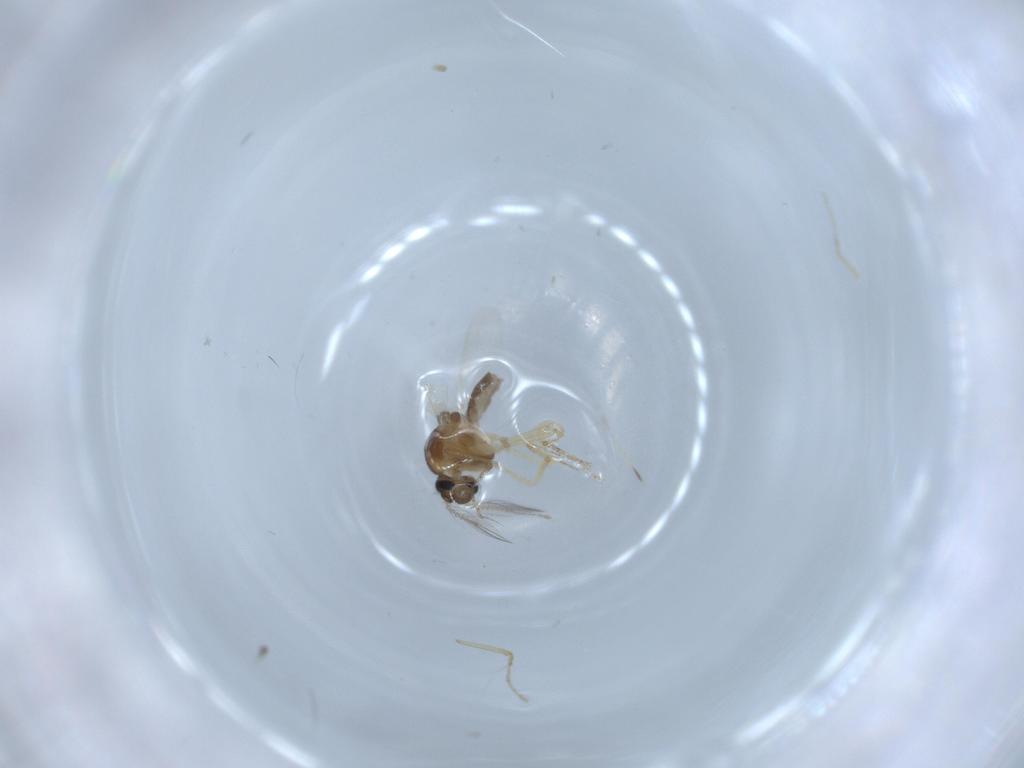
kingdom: Animalia
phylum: Arthropoda
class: Insecta
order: Diptera
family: Ceratopogonidae
